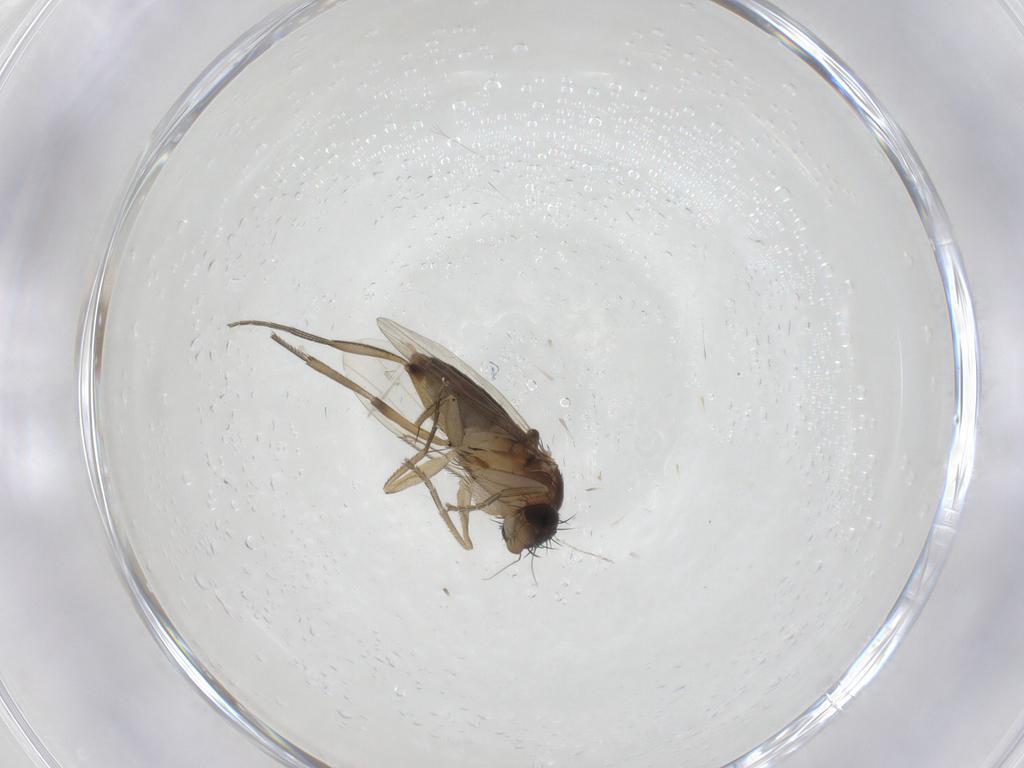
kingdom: Animalia
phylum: Arthropoda
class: Insecta
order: Diptera
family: Phoridae
